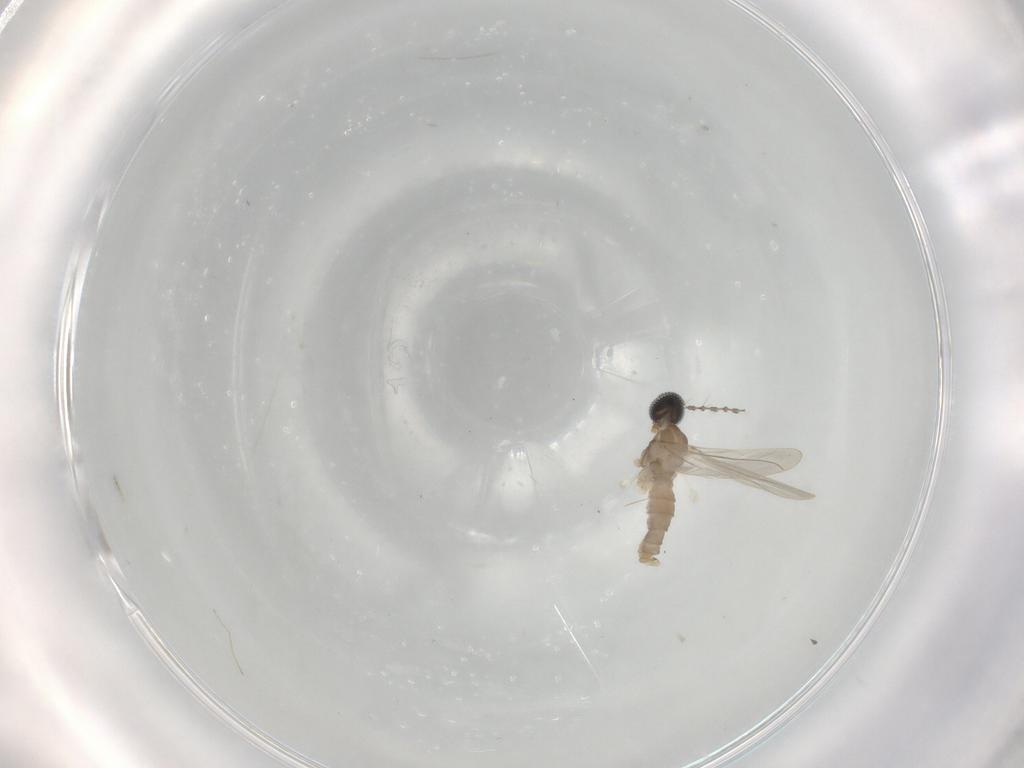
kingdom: Animalia
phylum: Arthropoda
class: Insecta
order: Diptera
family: Cecidomyiidae
